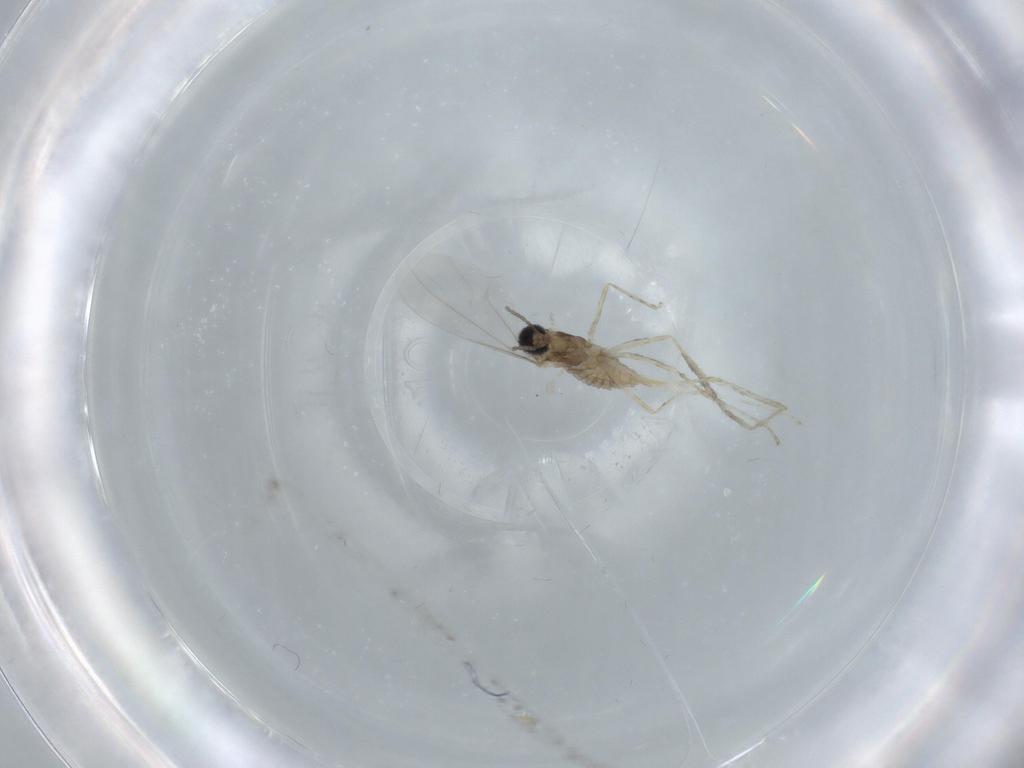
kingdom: Animalia
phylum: Arthropoda
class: Insecta
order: Diptera
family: Cecidomyiidae
